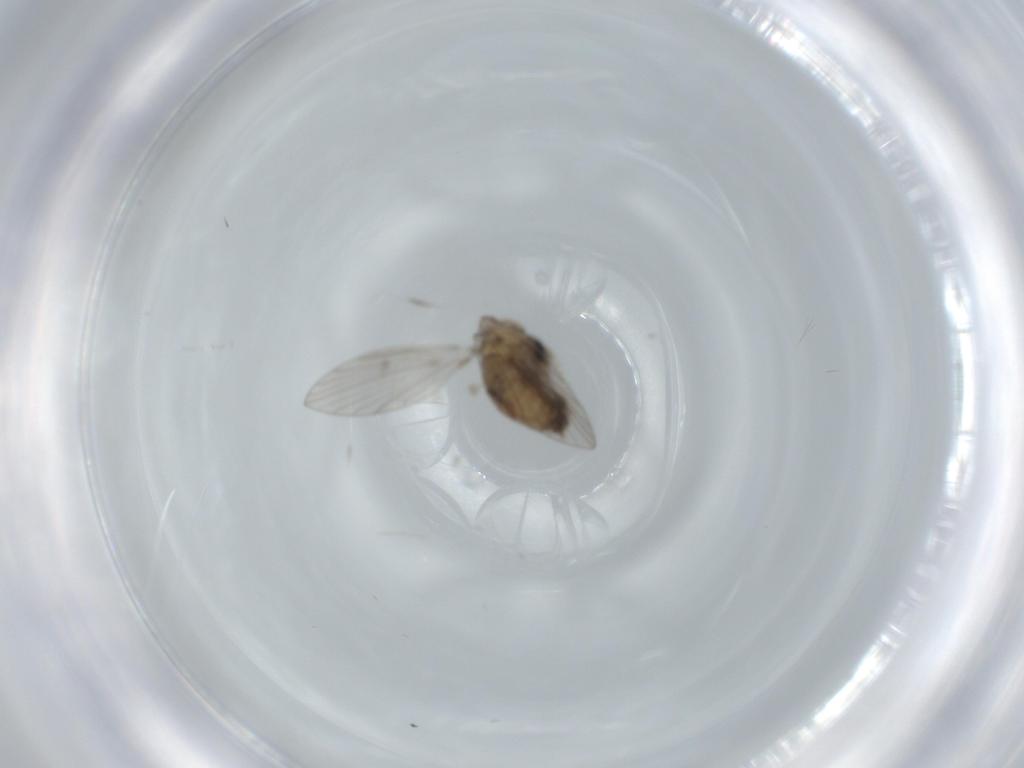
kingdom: Animalia
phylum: Arthropoda
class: Insecta
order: Diptera
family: Psychodidae
